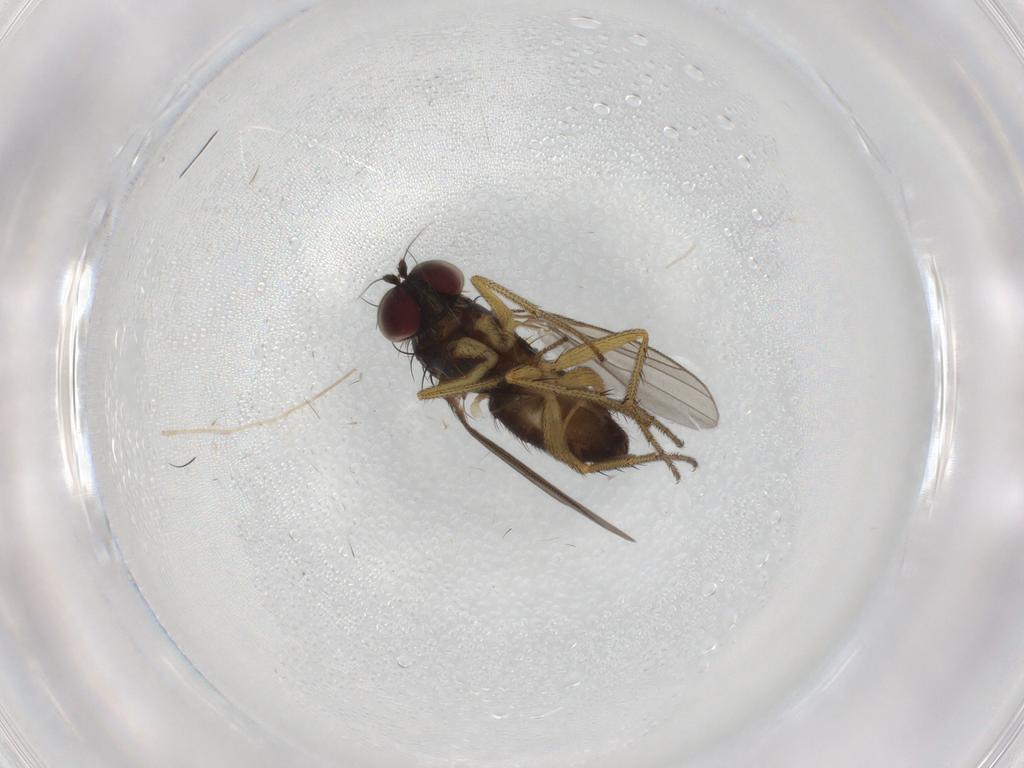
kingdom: Animalia
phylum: Arthropoda
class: Insecta
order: Diptera
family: Dolichopodidae
